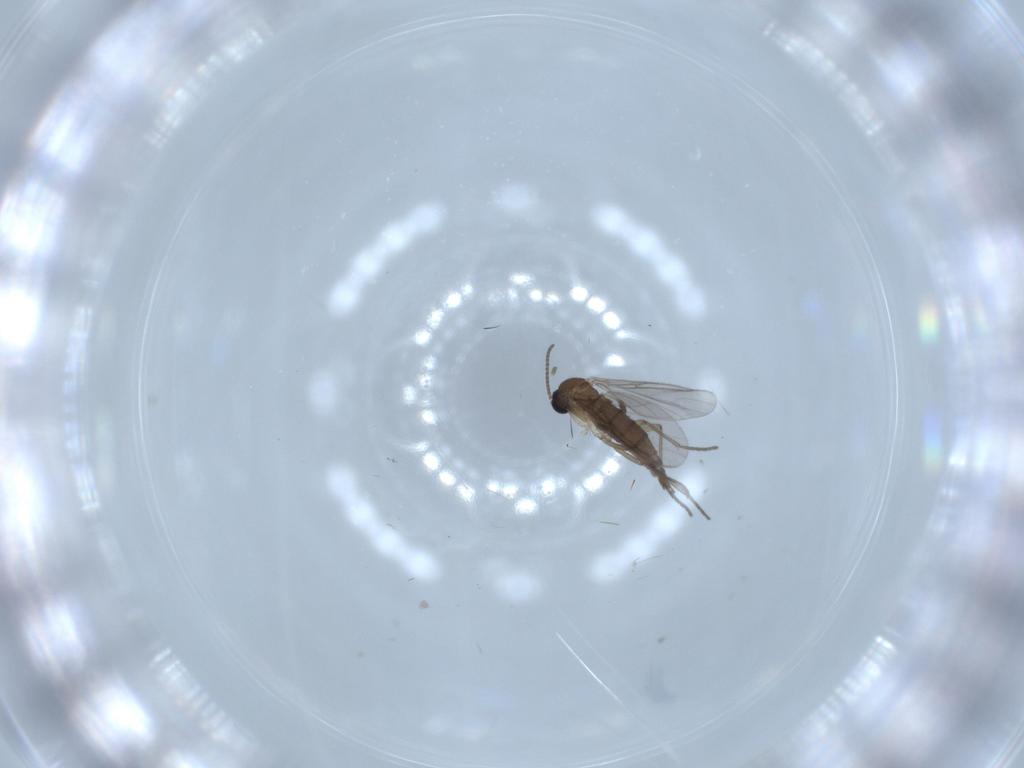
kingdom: Animalia
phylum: Arthropoda
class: Insecta
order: Diptera
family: Sciaridae
